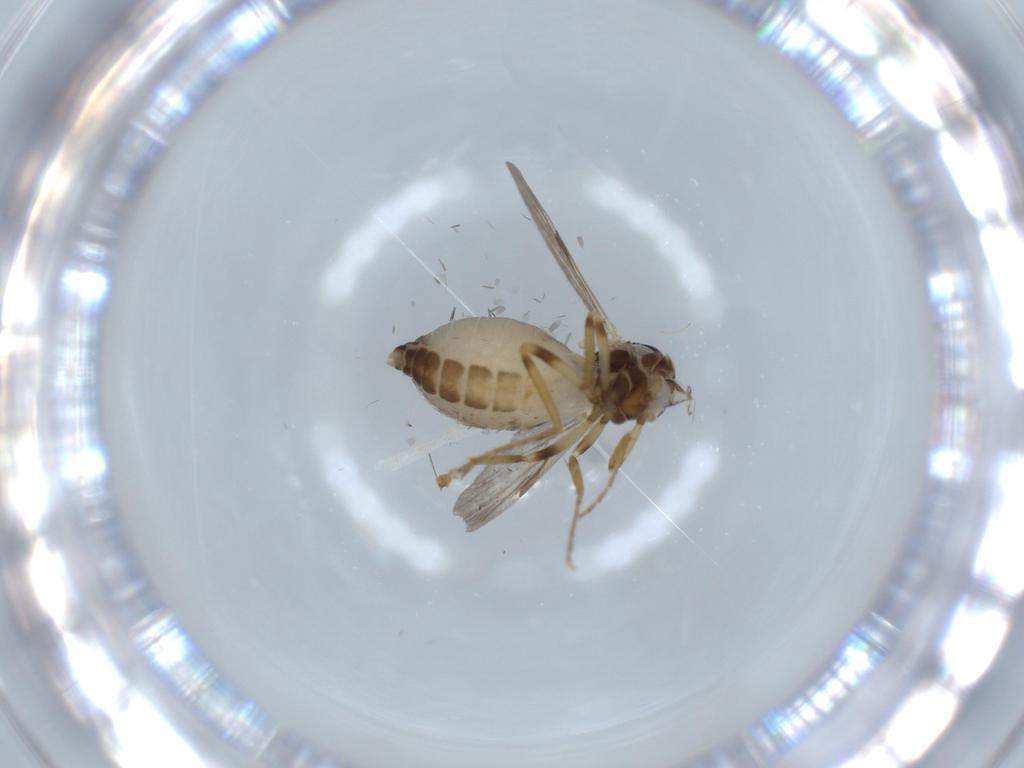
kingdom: Animalia
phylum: Arthropoda
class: Insecta
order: Diptera
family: Ceratopogonidae
